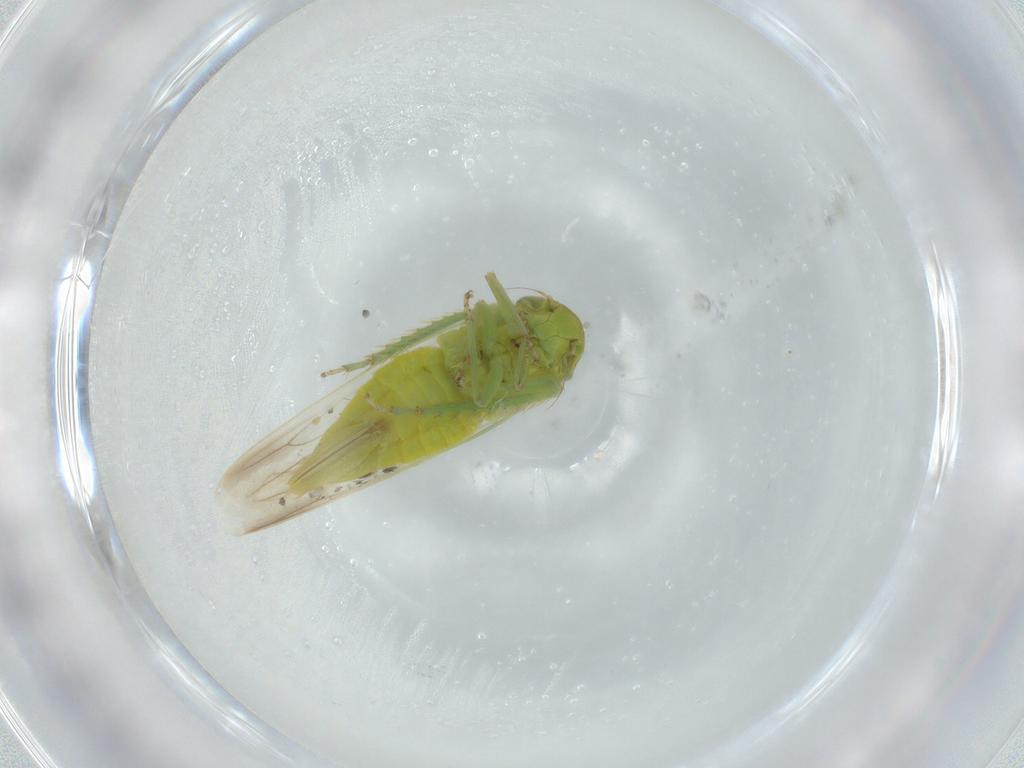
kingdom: Animalia
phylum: Arthropoda
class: Insecta
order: Hemiptera
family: Cicadellidae
